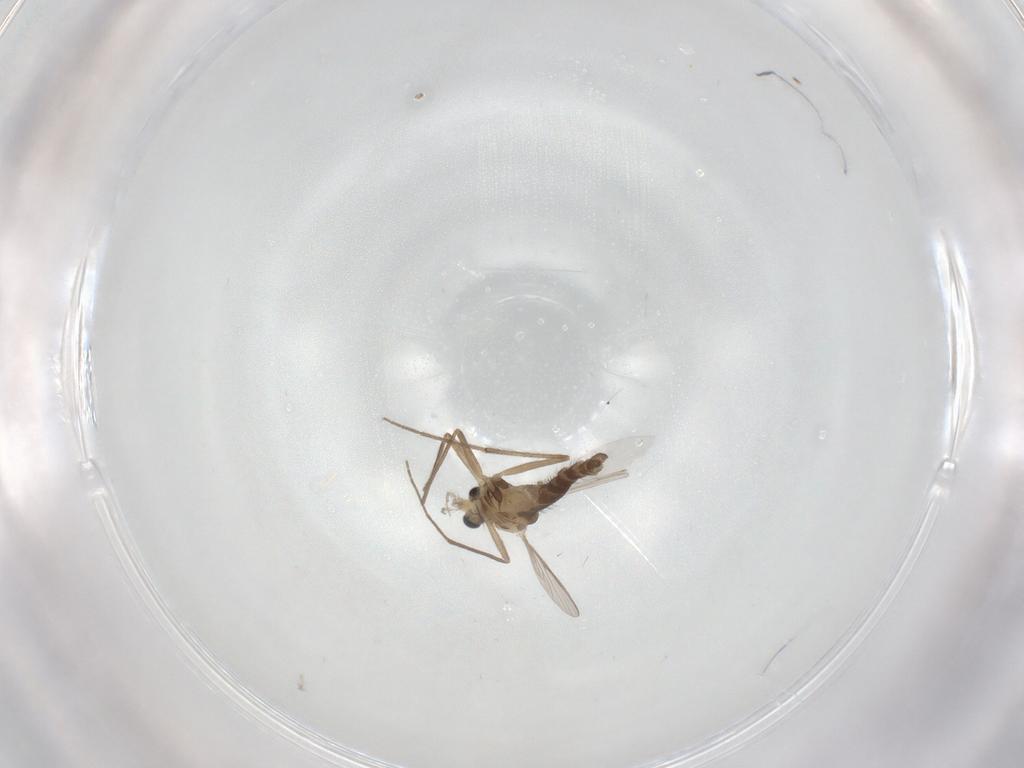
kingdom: Animalia
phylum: Arthropoda
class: Insecta
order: Diptera
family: Chironomidae
